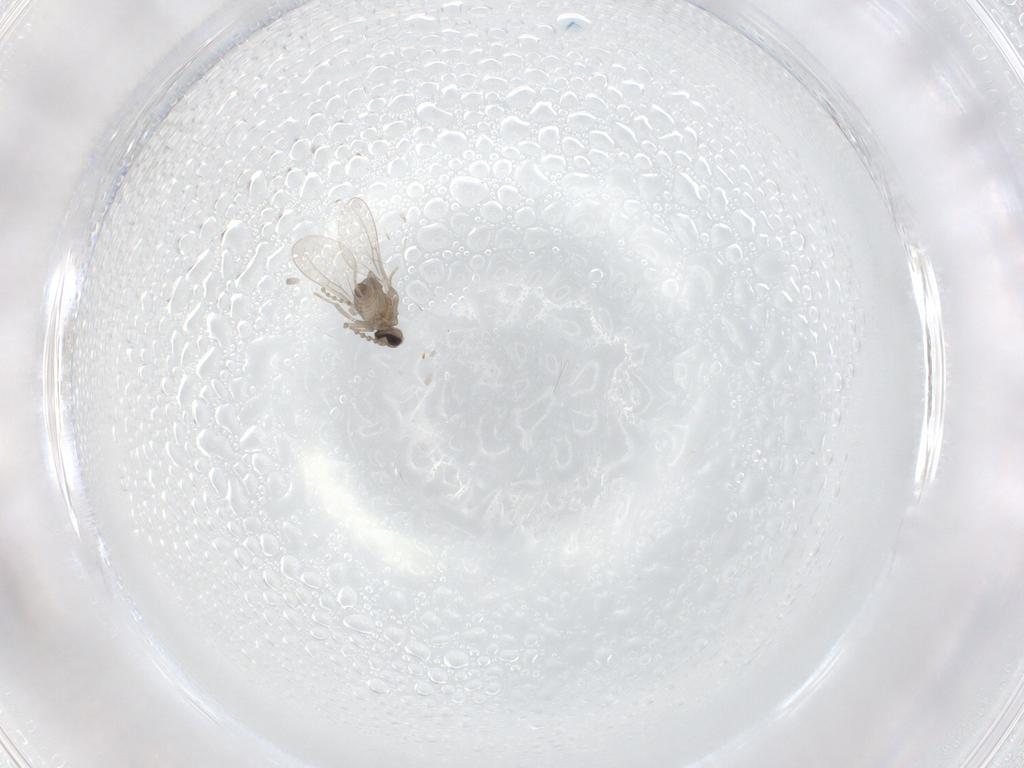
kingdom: Animalia
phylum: Arthropoda
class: Insecta
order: Diptera
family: Cecidomyiidae
